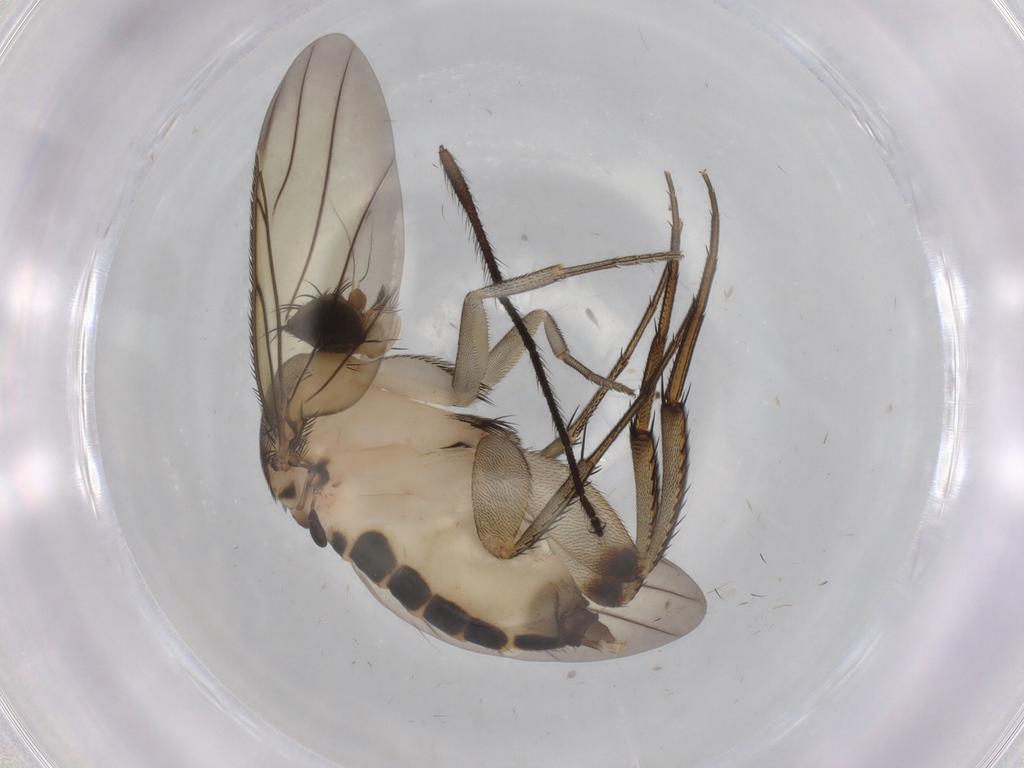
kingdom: Animalia
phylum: Arthropoda
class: Insecta
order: Diptera
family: Phoridae
